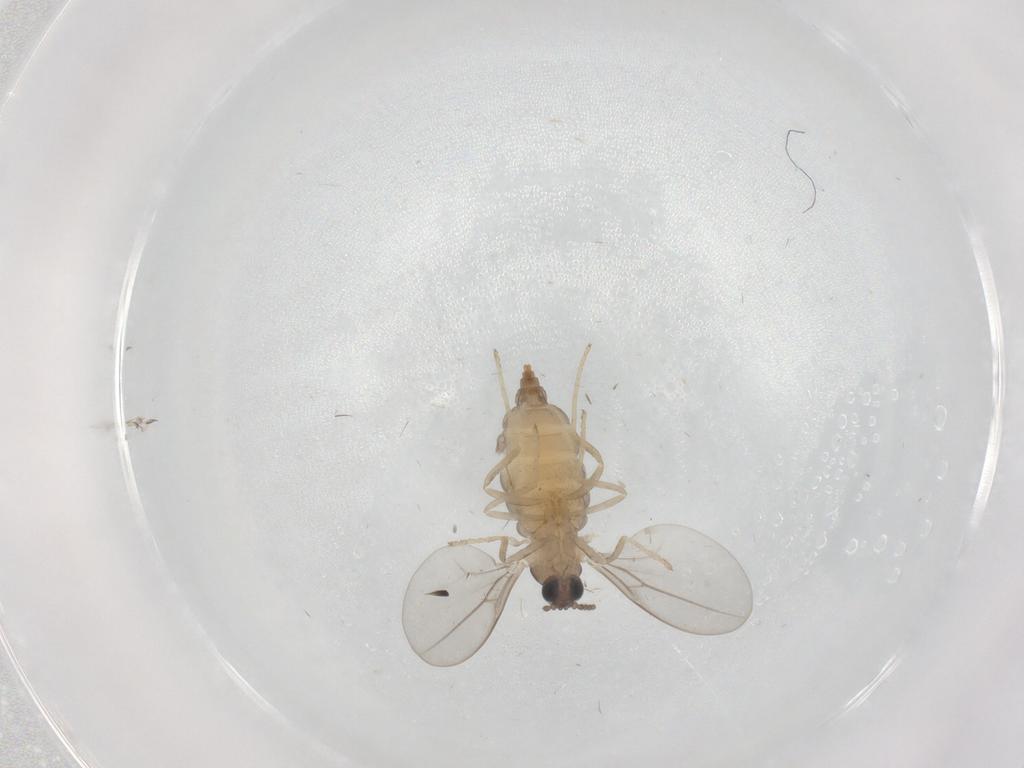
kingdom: Animalia
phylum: Arthropoda
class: Insecta
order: Diptera
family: Cecidomyiidae
